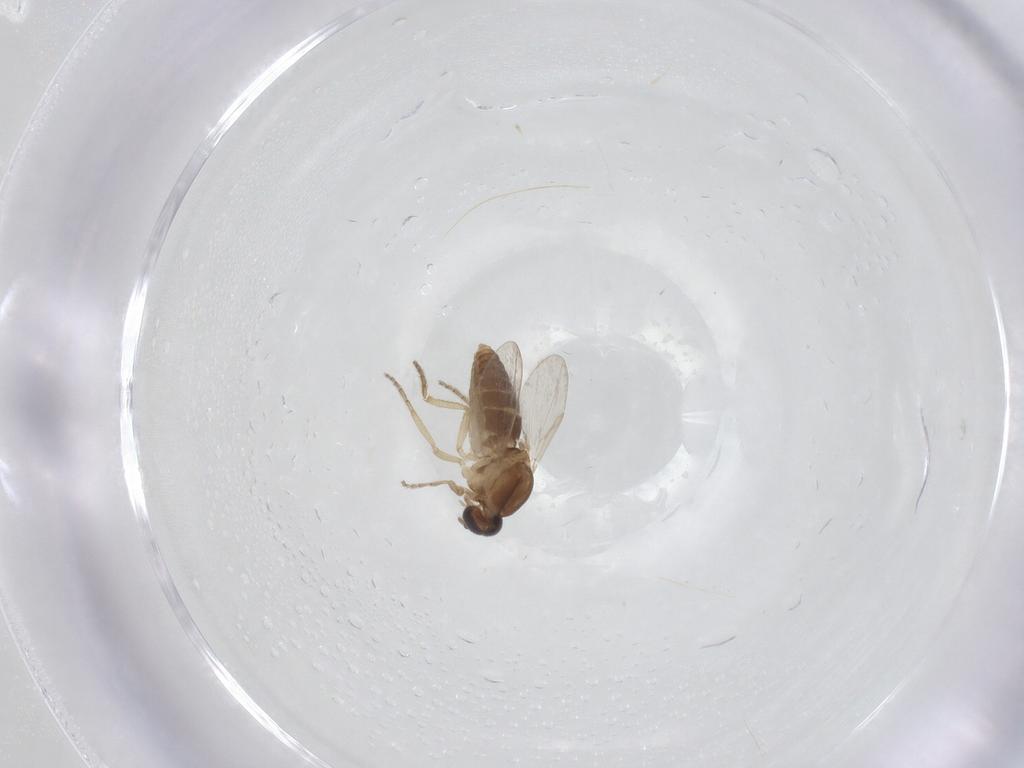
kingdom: Animalia
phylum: Arthropoda
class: Insecta
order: Diptera
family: Ceratopogonidae
